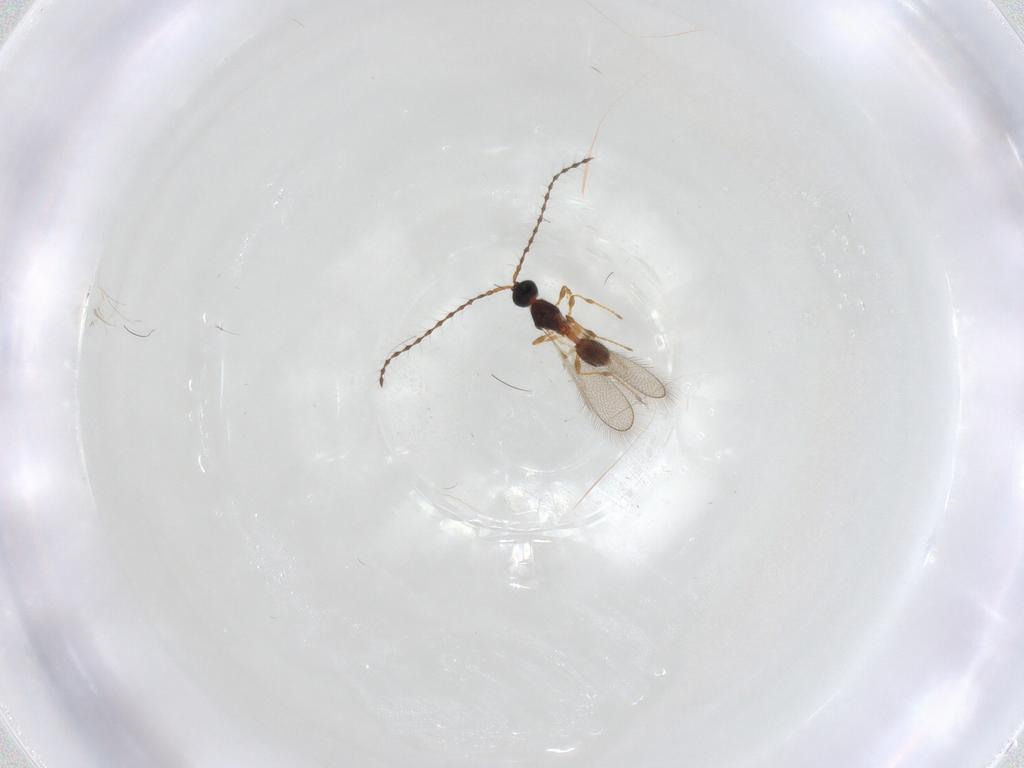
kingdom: Animalia
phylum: Arthropoda
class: Insecta
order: Hymenoptera
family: Diapriidae
